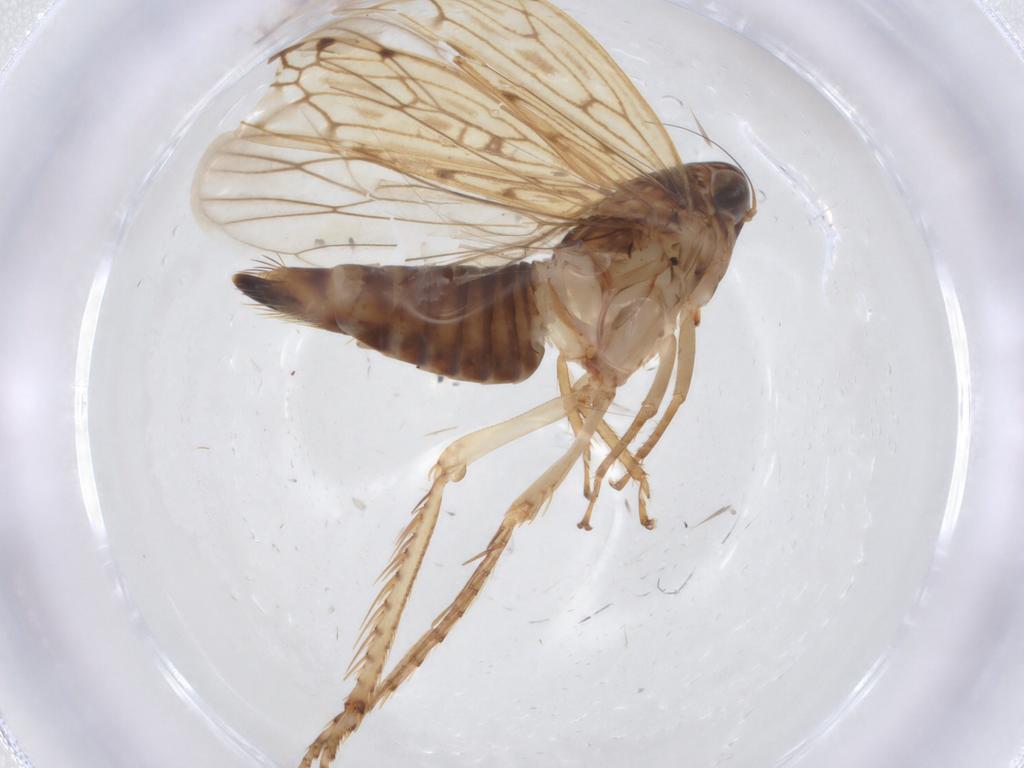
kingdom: Animalia
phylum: Arthropoda
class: Insecta
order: Hemiptera
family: Cicadellidae
